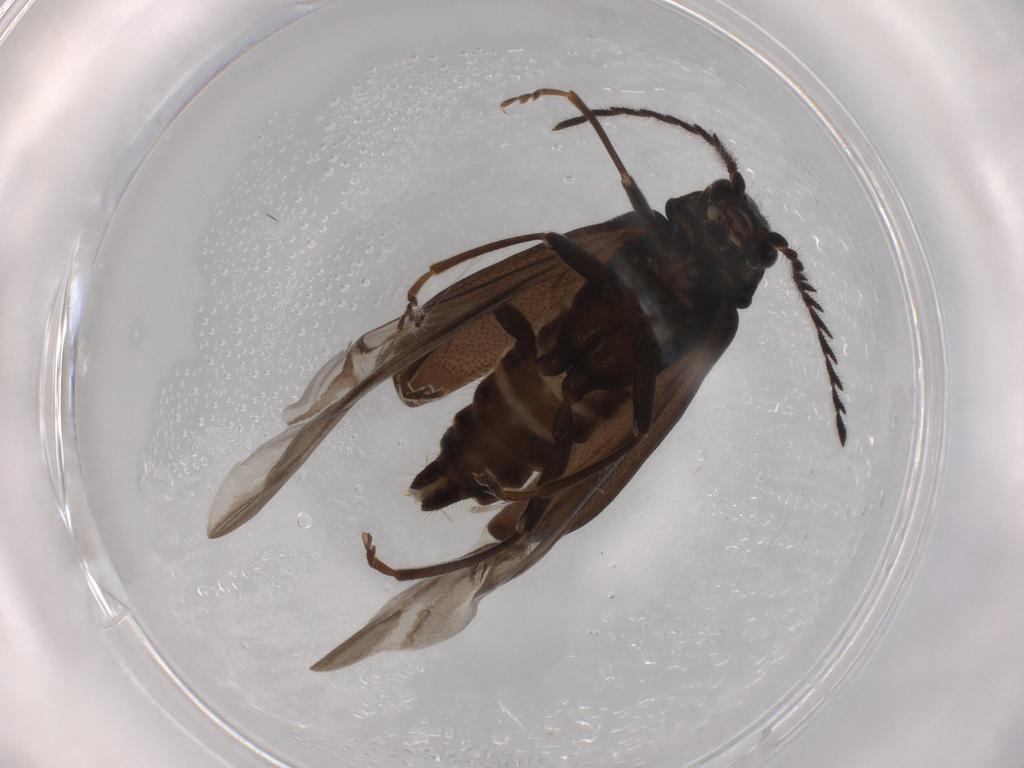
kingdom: Animalia
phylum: Arthropoda
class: Insecta
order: Coleoptera
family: Melyridae
